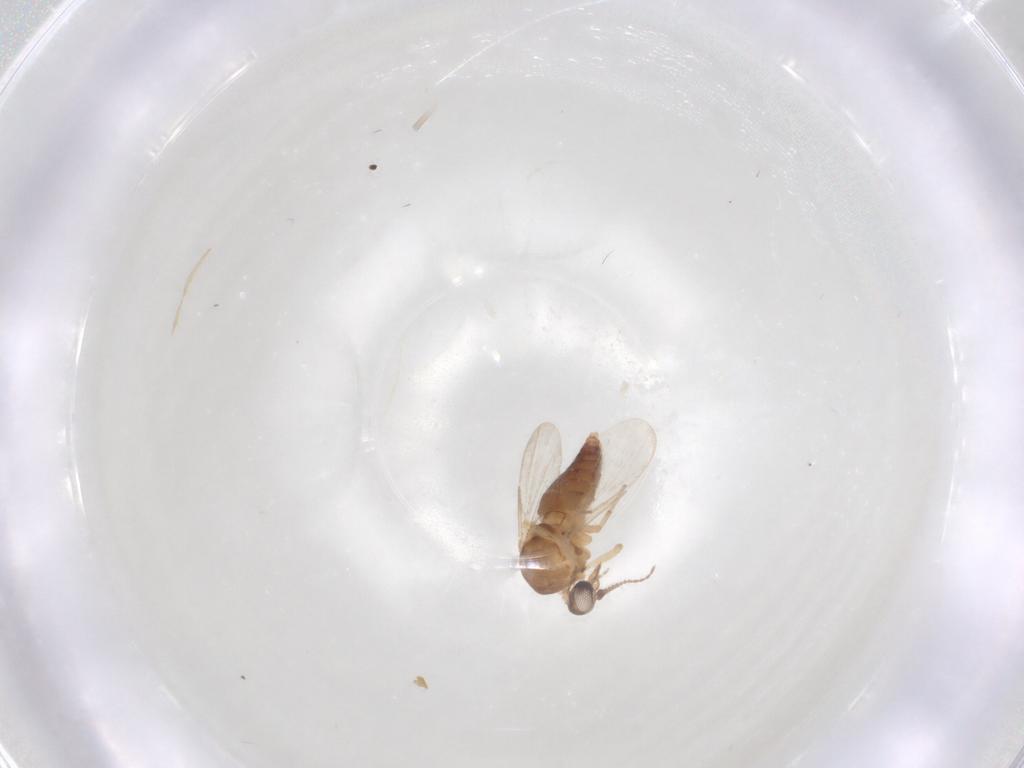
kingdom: Animalia
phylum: Arthropoda
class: Insecta
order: Diptera
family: Ceratopogonidae
